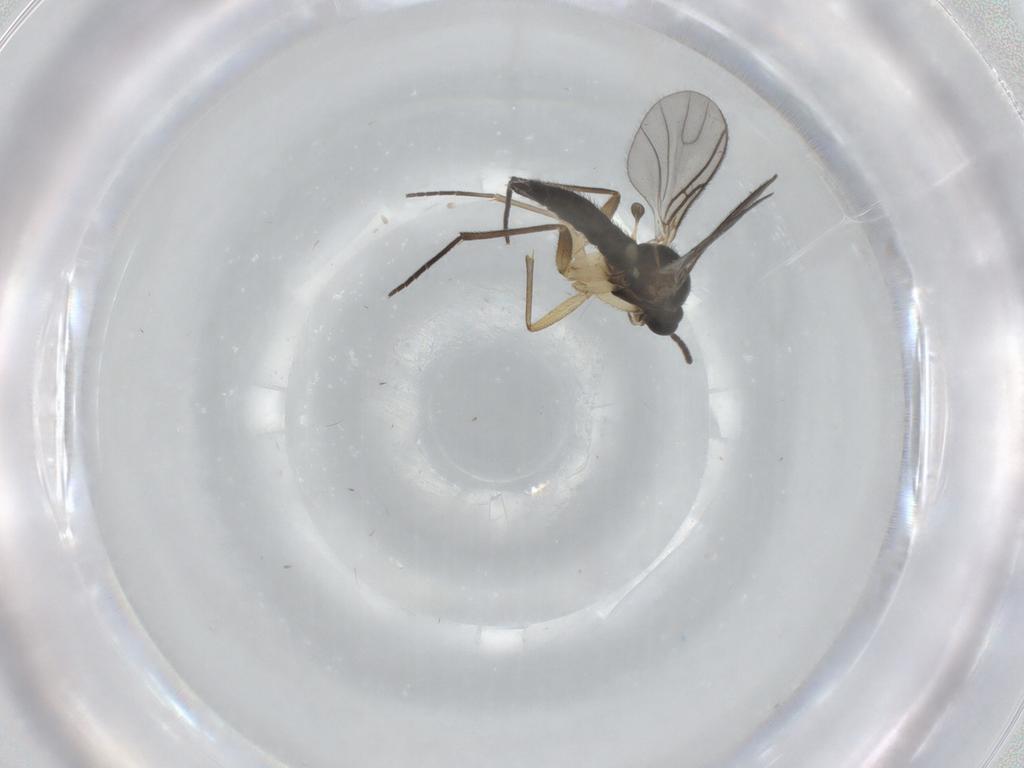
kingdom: Animalia
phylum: Arthropoda
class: Insecta
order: Diptera
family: Sciaridae
